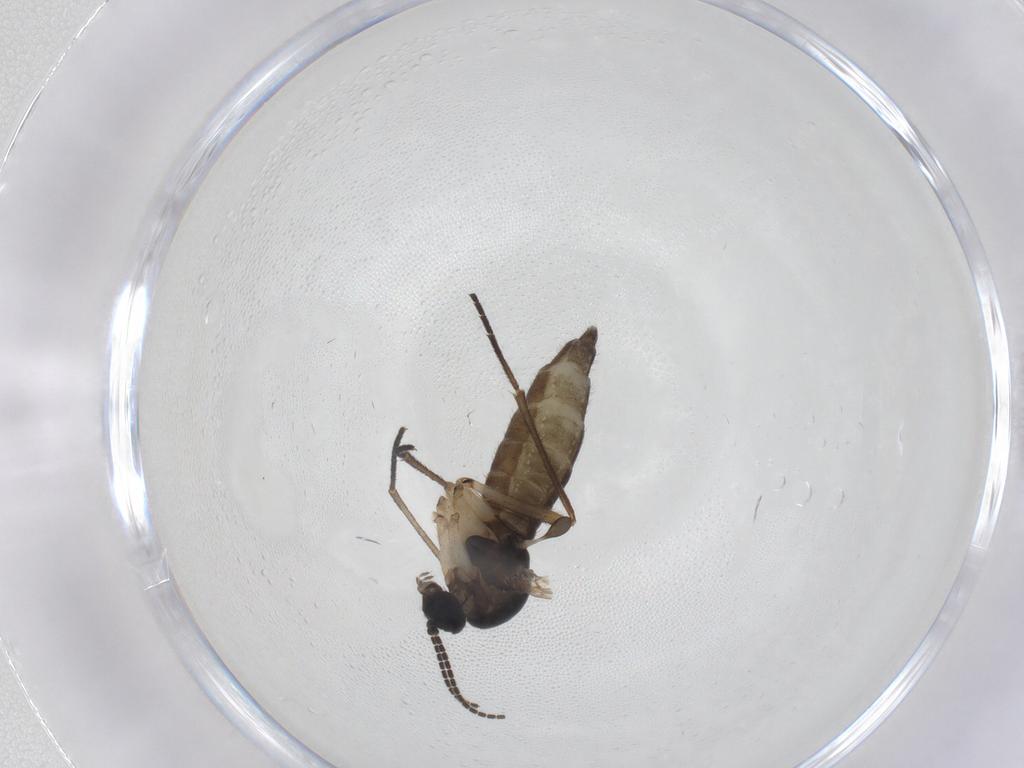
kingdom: Animalia
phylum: Arthropoda
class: Insecta
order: Diptera
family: Sciaridae
